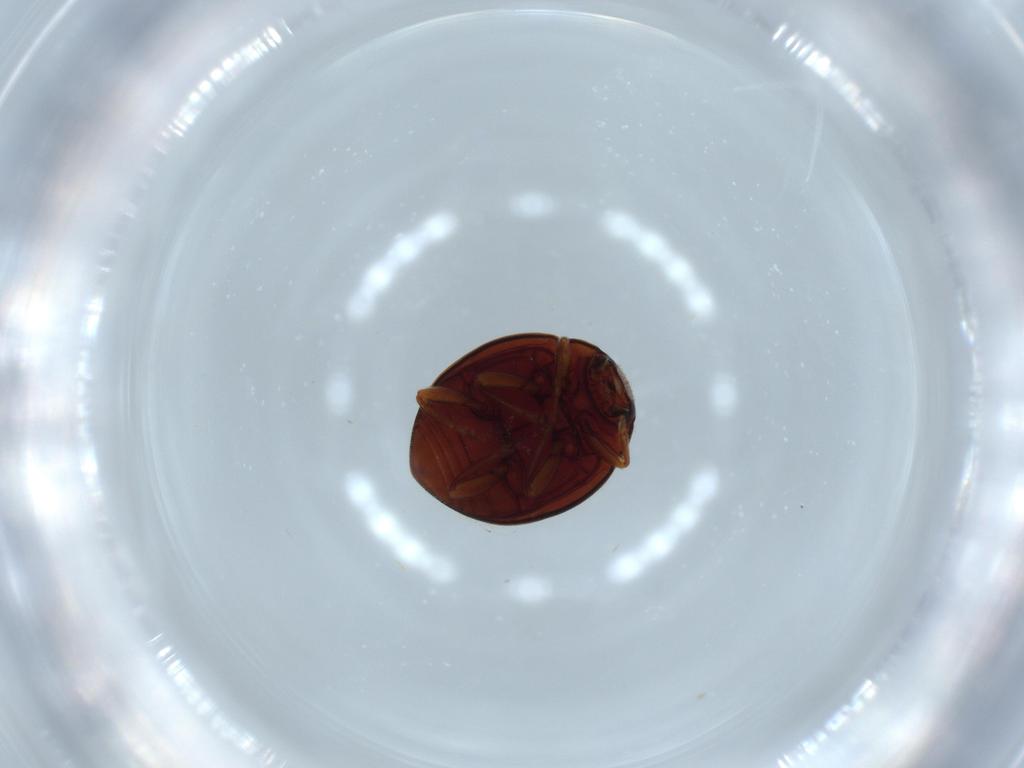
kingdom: Animalia
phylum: Arthropoda
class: Insecta
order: Coleoptera
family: Coccinellidae
